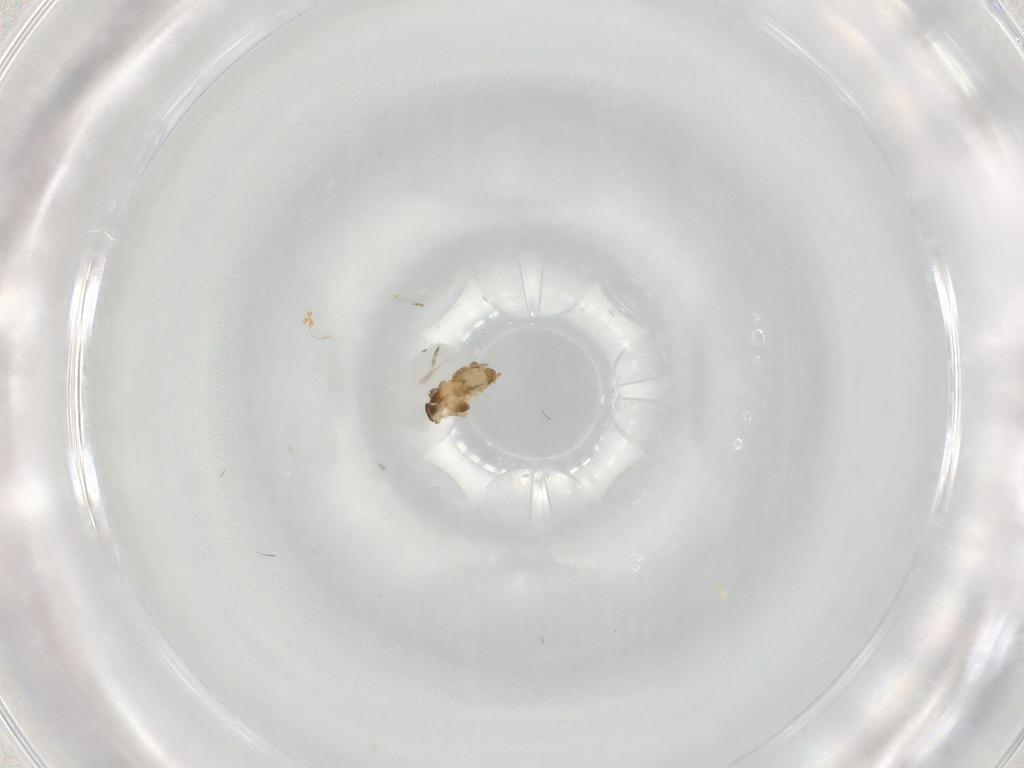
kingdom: Animalia
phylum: Arthropoda
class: Insecta
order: Diptera
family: Cecidomyiidae
